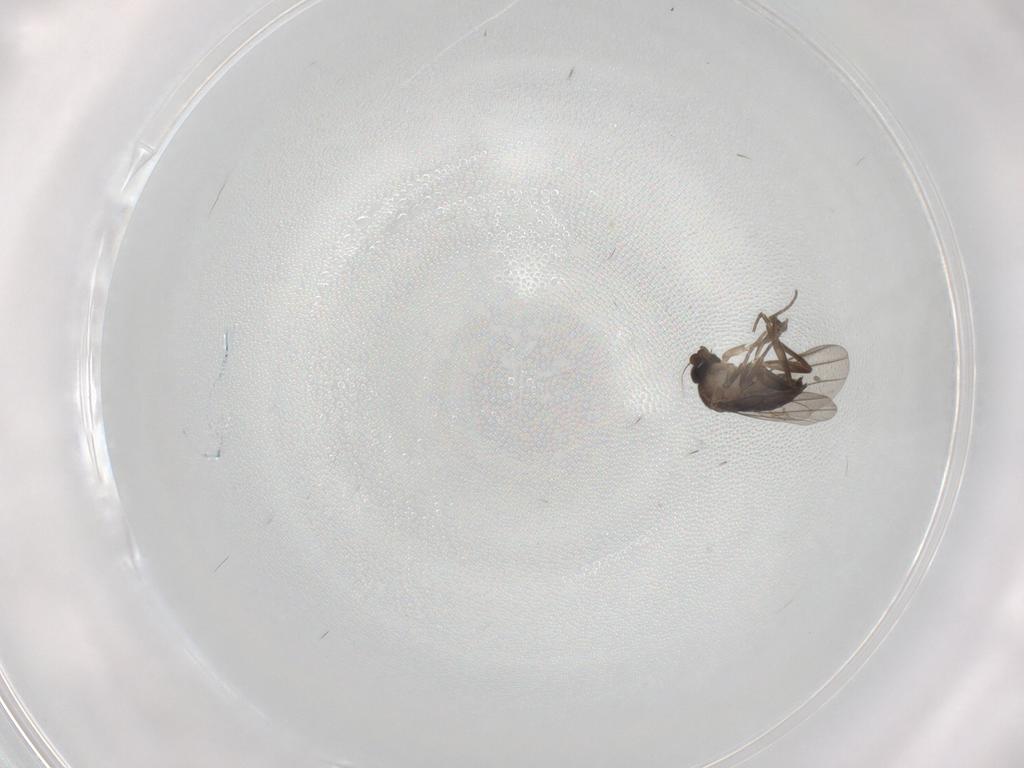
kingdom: Animalia
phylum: Arthropoda
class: Insecta
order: Diptera
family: Phoridae
